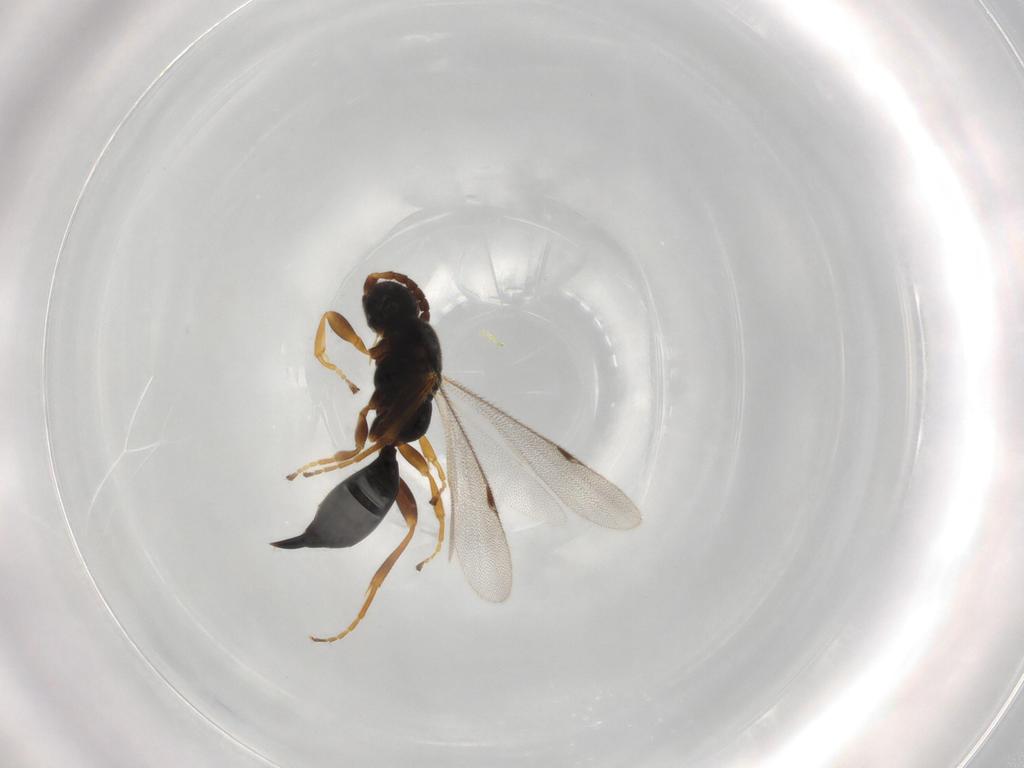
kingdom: Animalia
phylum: Arthropoda
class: Insecta
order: Hymenoptera
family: Proctotrupidae
